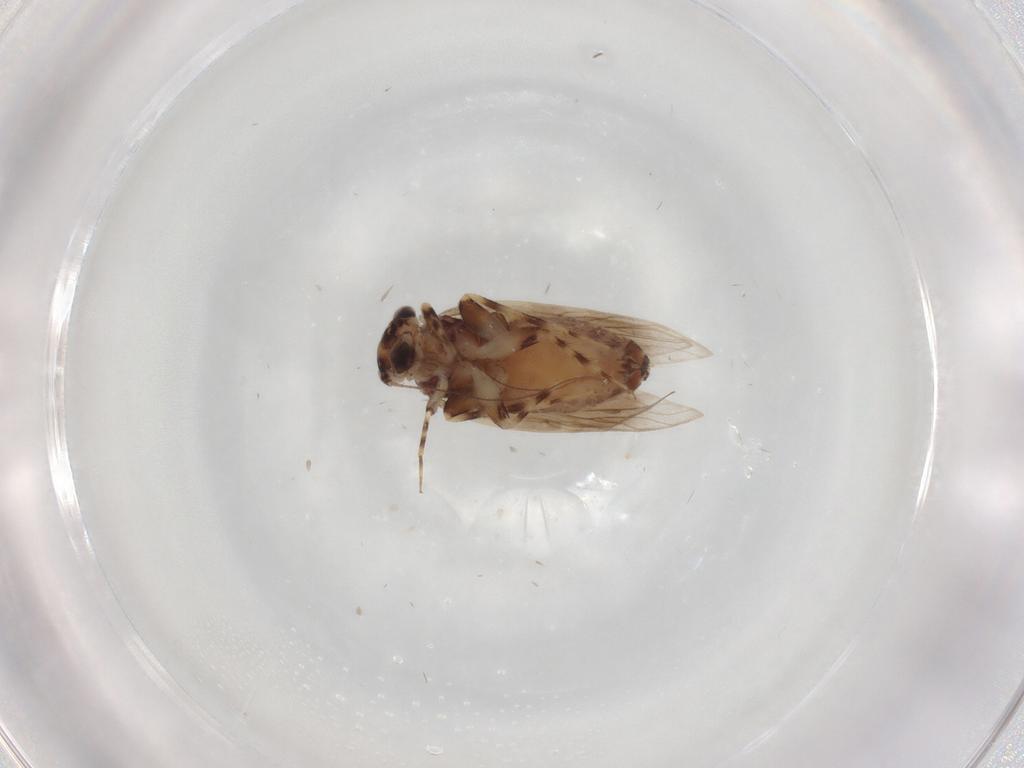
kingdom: Animalia
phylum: Arthropoda
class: Insecta
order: Psocodea
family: Lepidopsocidae
